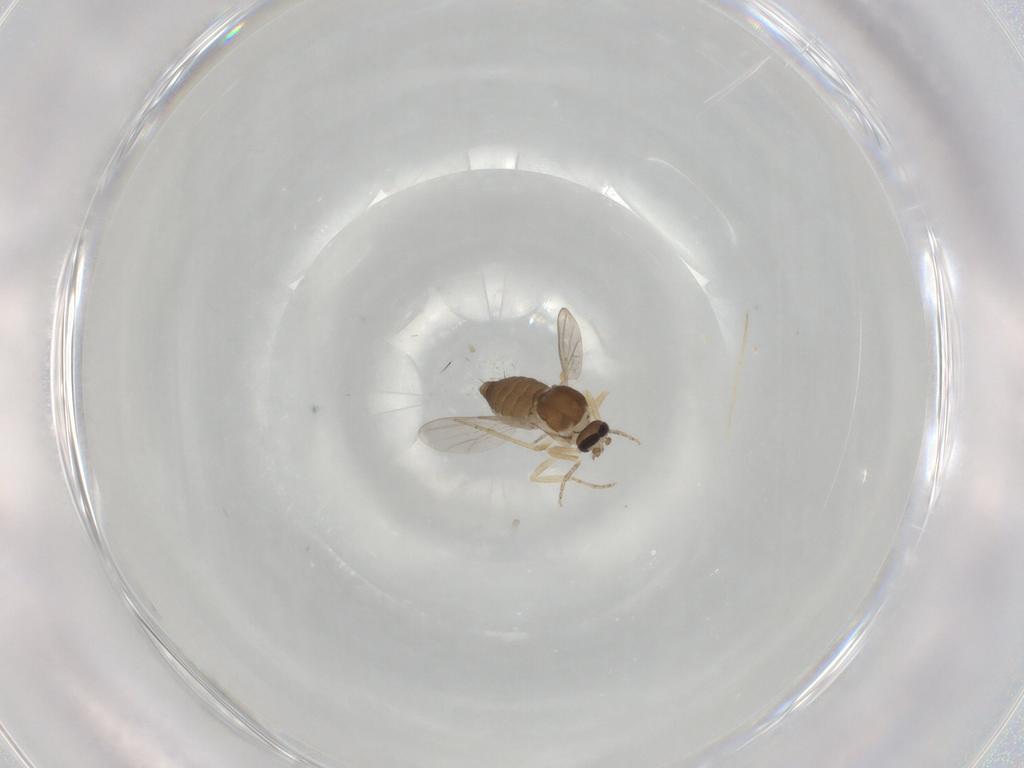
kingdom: Animalia
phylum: Arthropoda
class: Insecta
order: Diptera
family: Ceratopogonidae
